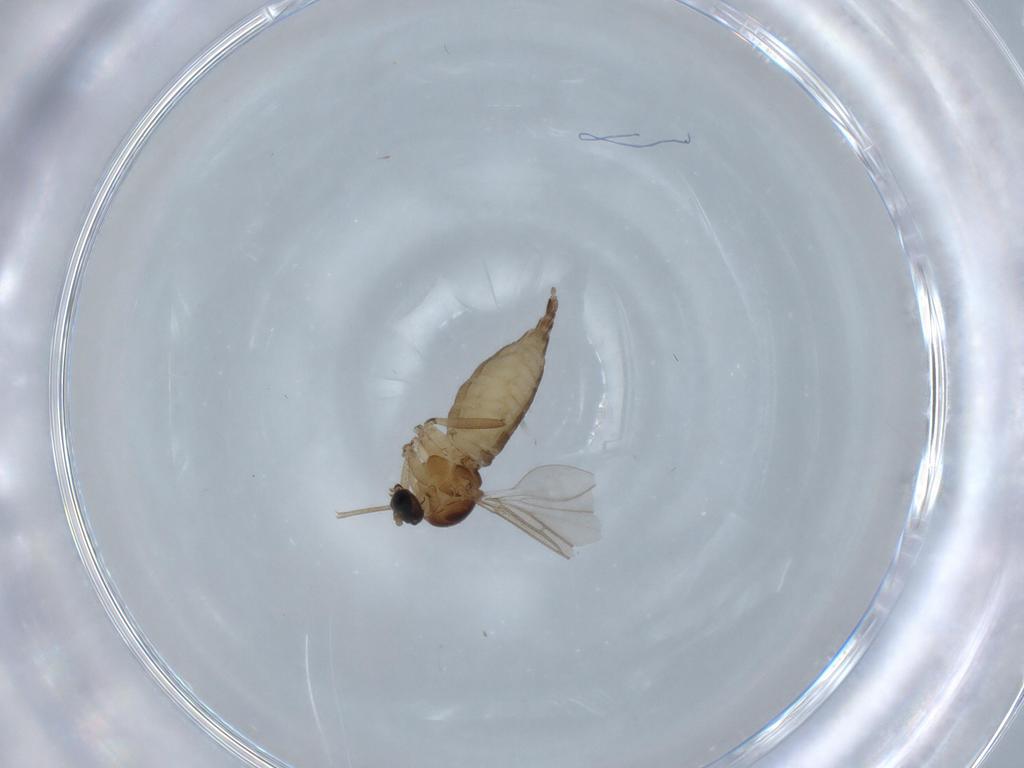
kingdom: Animalia
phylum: Arthropoda
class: Insecta
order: Diptera
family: Sciaridae
